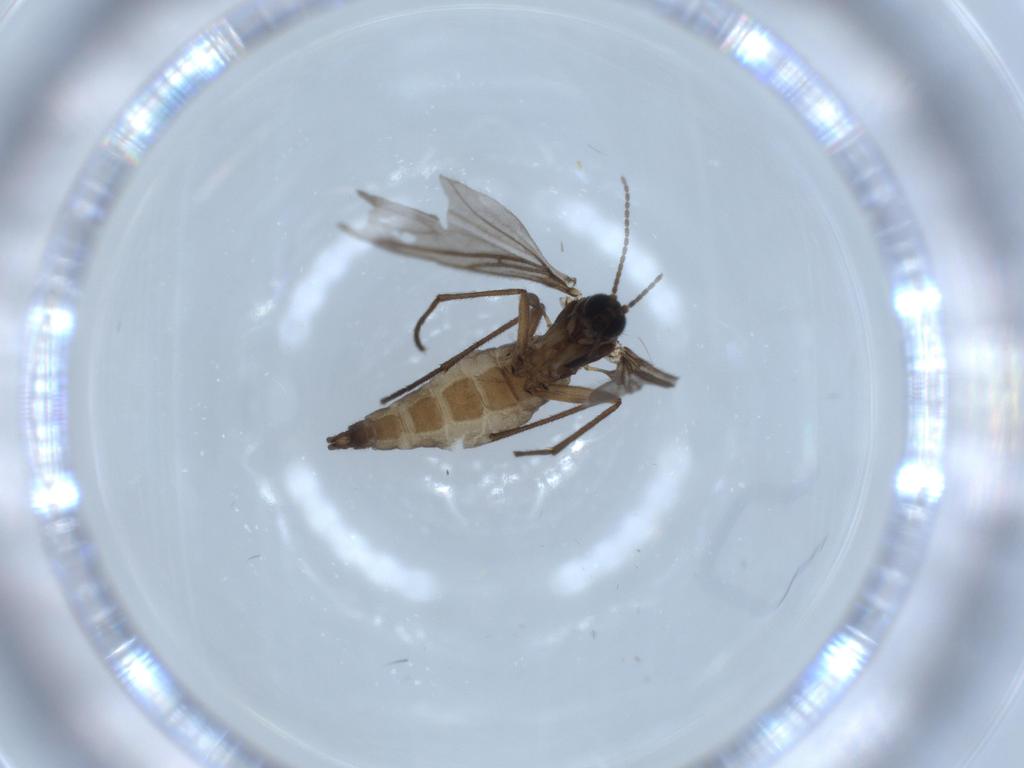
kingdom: Animalia
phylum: Arthropoda
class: Insecta
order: Diptera
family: Sciaridae
